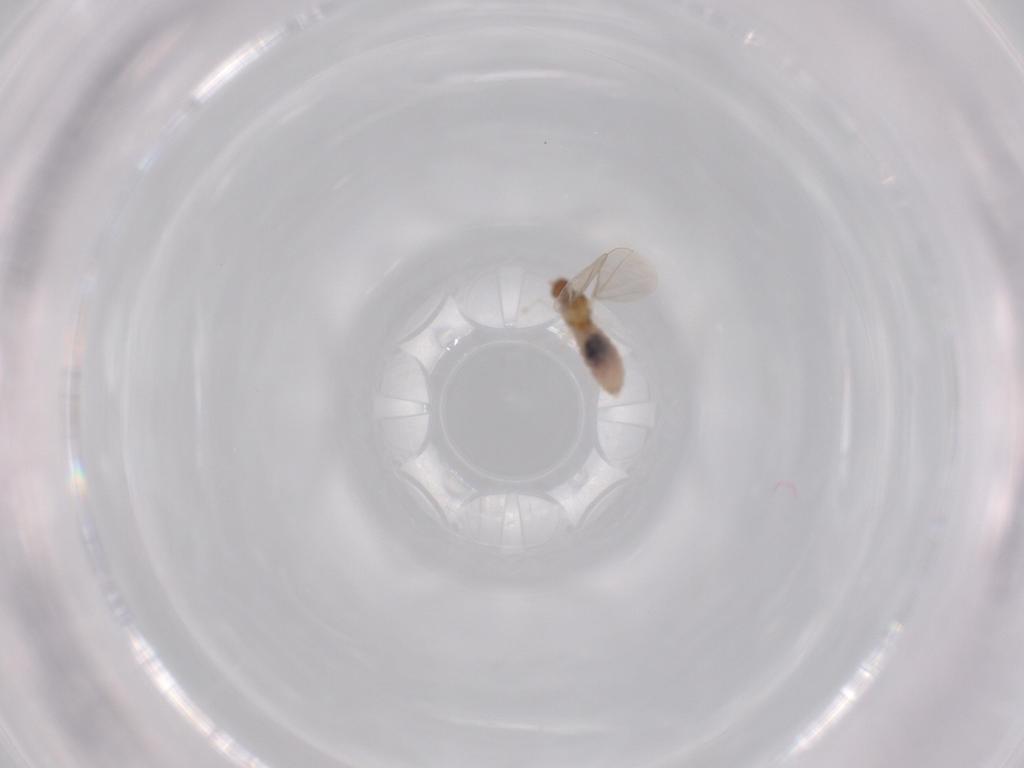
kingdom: Animalia
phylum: Arthropoda
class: Insecta
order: Diptera
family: Cecidomyiidae
